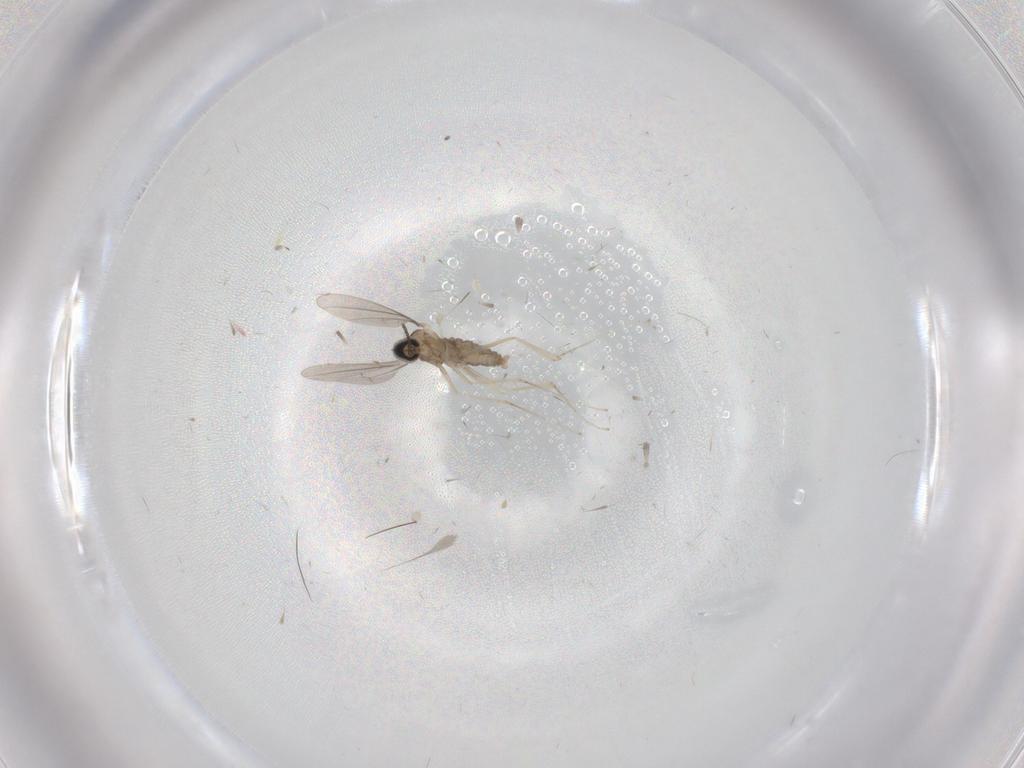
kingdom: Animalia
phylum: Arthropoda
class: Insecta
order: Diptera
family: Cecidomyiidae
